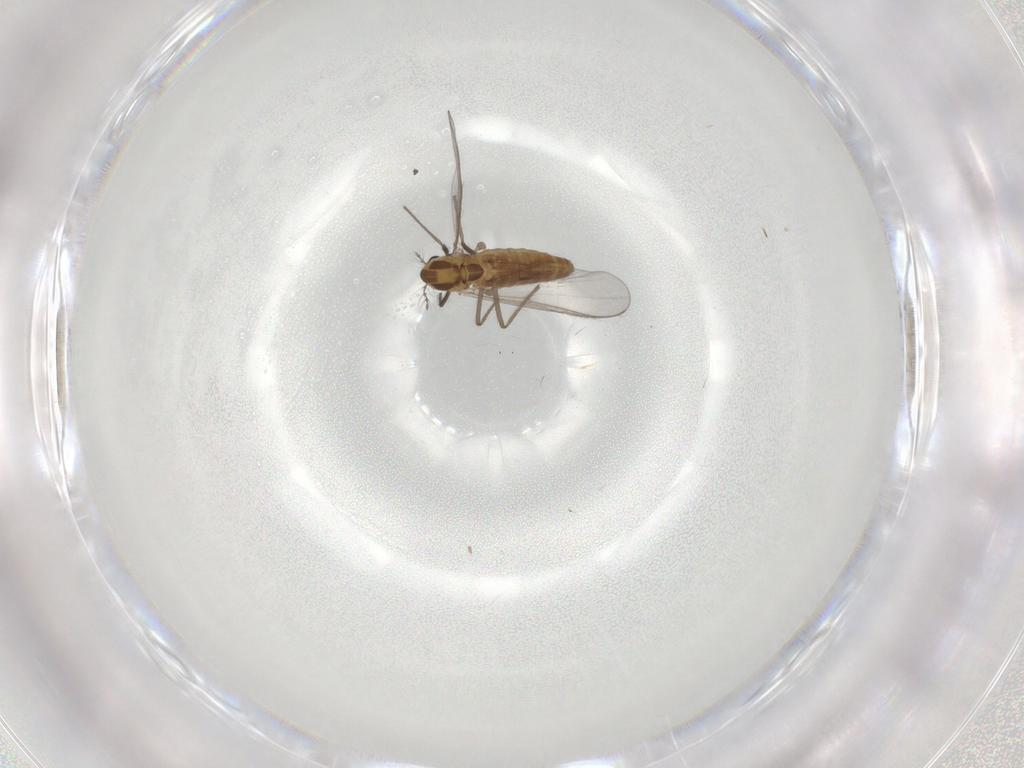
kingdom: Animalia
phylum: Arthropoda
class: Insecta
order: Diptera
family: Chironomidae
